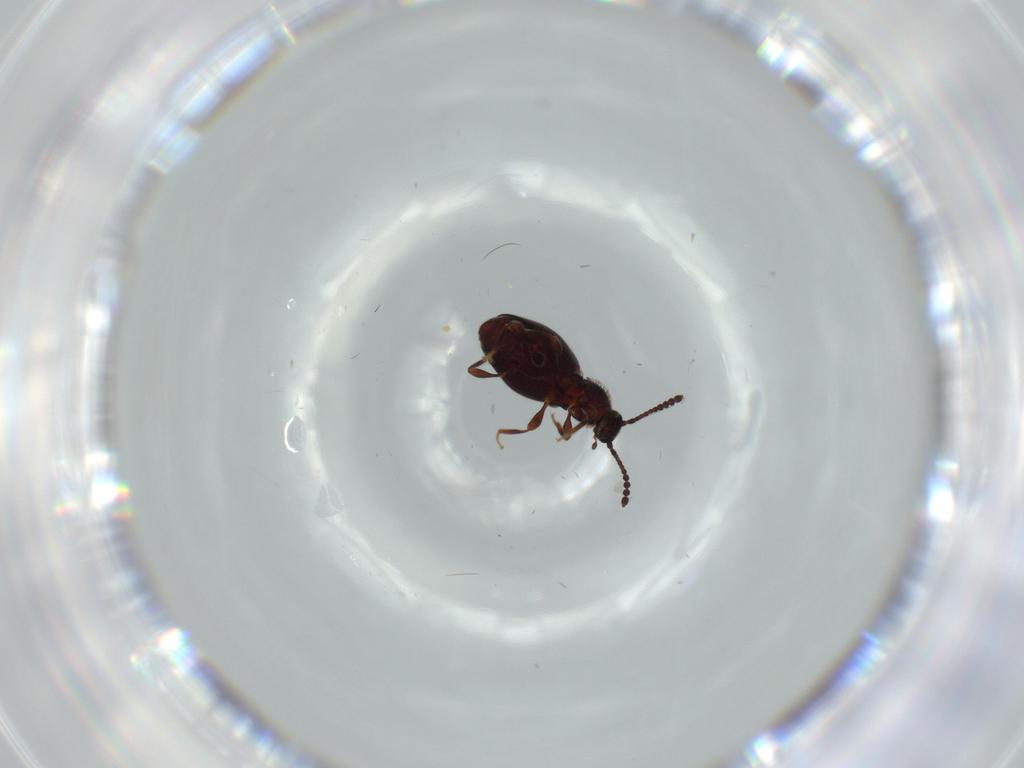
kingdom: Animalia
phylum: Arthropoda
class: Insecta
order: Coleoptera
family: Staphylinidae
